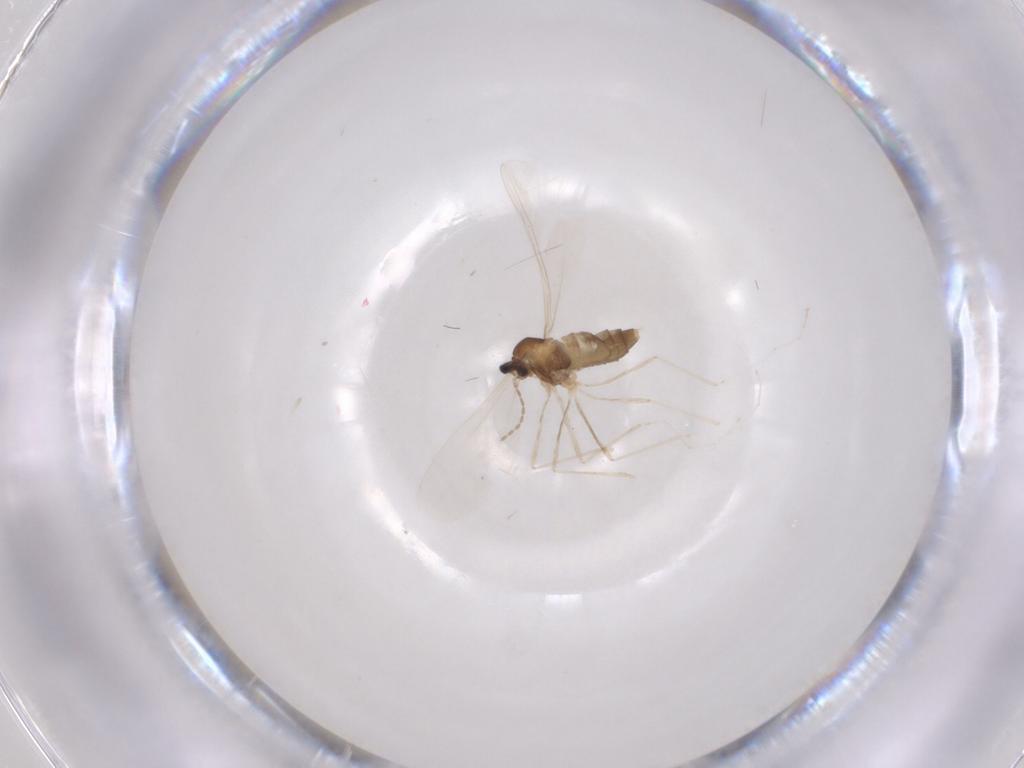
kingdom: Animalia
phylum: Arthropoda
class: Insecta
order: Diptera
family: Cecidomyiidae
